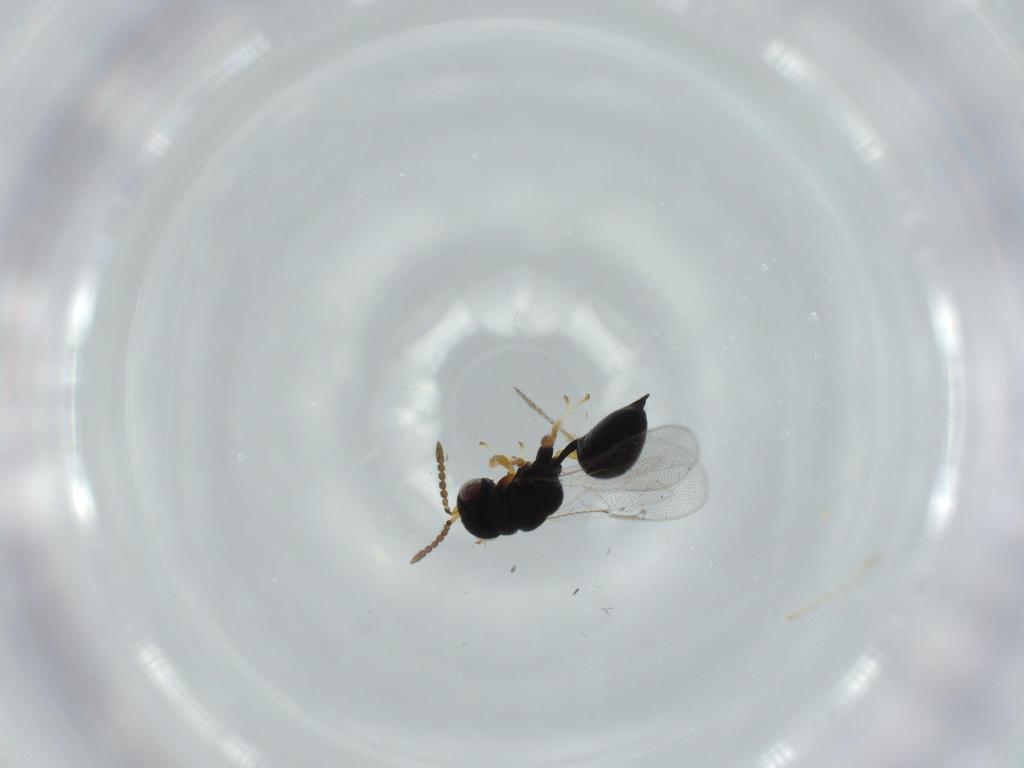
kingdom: Animalia
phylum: Arthropoda
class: Insecta
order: Hymenoptera
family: Eurytomidae
